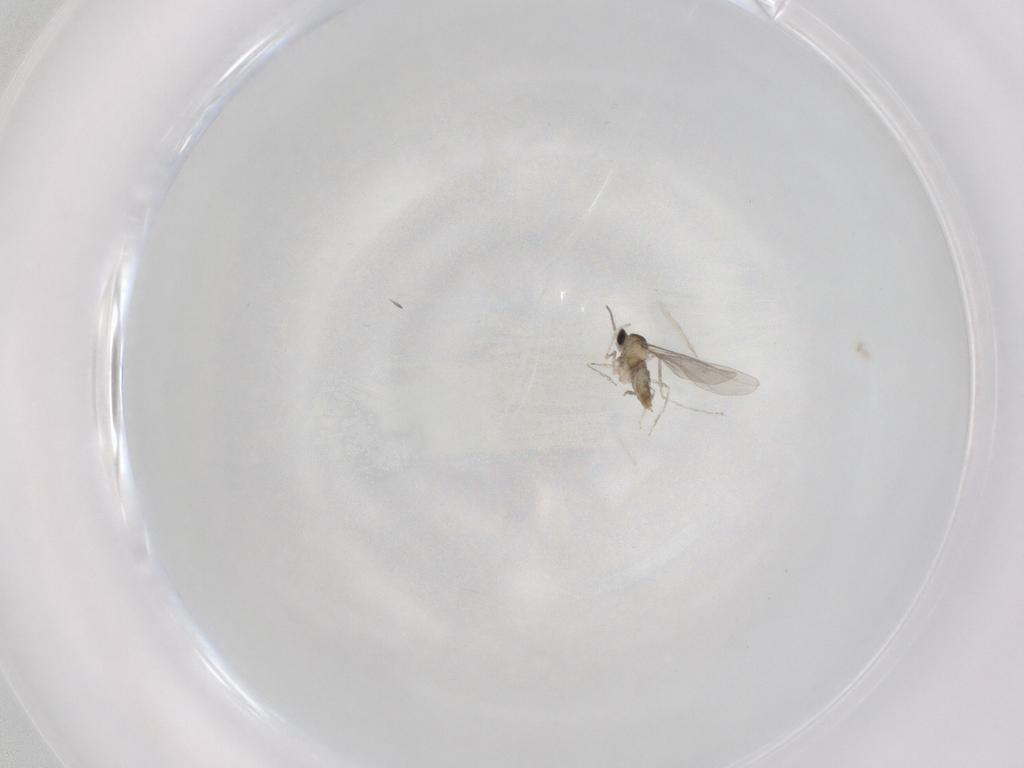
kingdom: Animalia
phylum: Arthropoda
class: Insecta
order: Diptera
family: Cecidomyiidae
